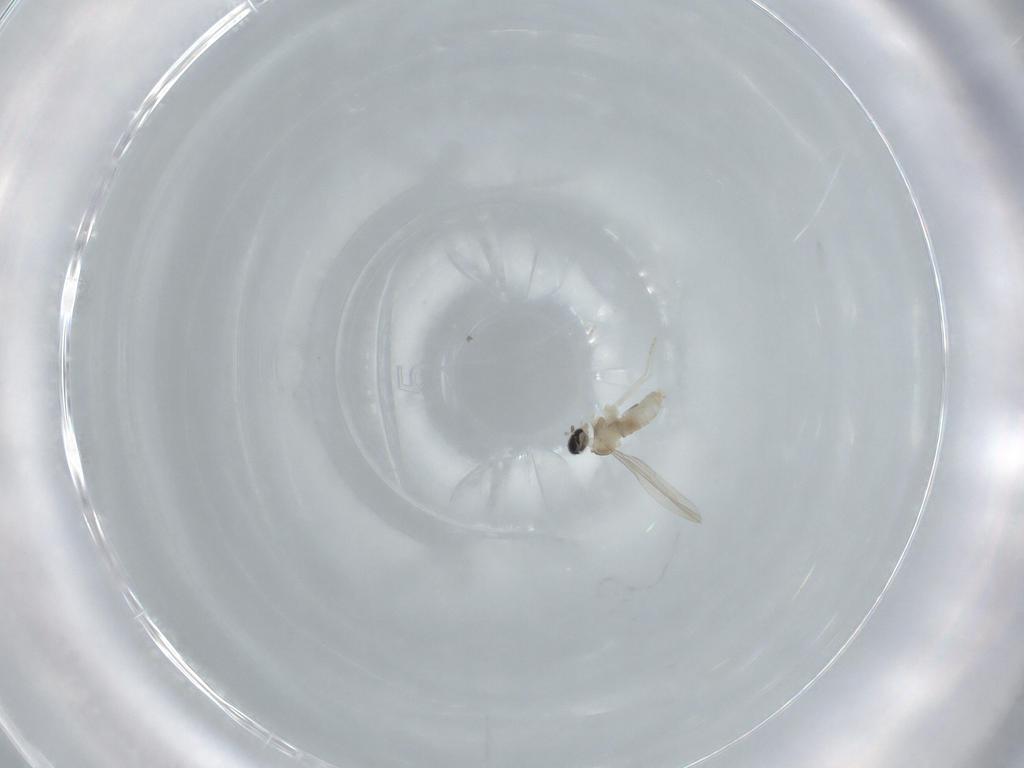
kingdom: Animalia
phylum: Arthropoda
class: Insecta
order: Diptera
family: Cecidomyiidae
